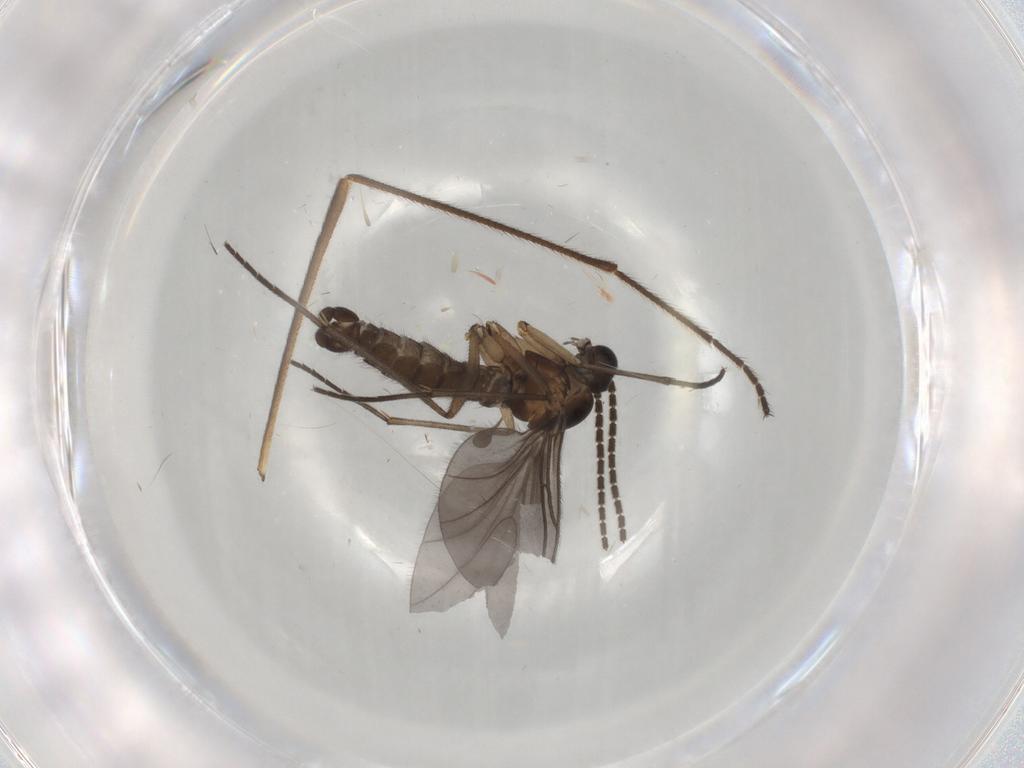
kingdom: Animalia
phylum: Arthropoda
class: Insecta
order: Diptera
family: Sciaridae
